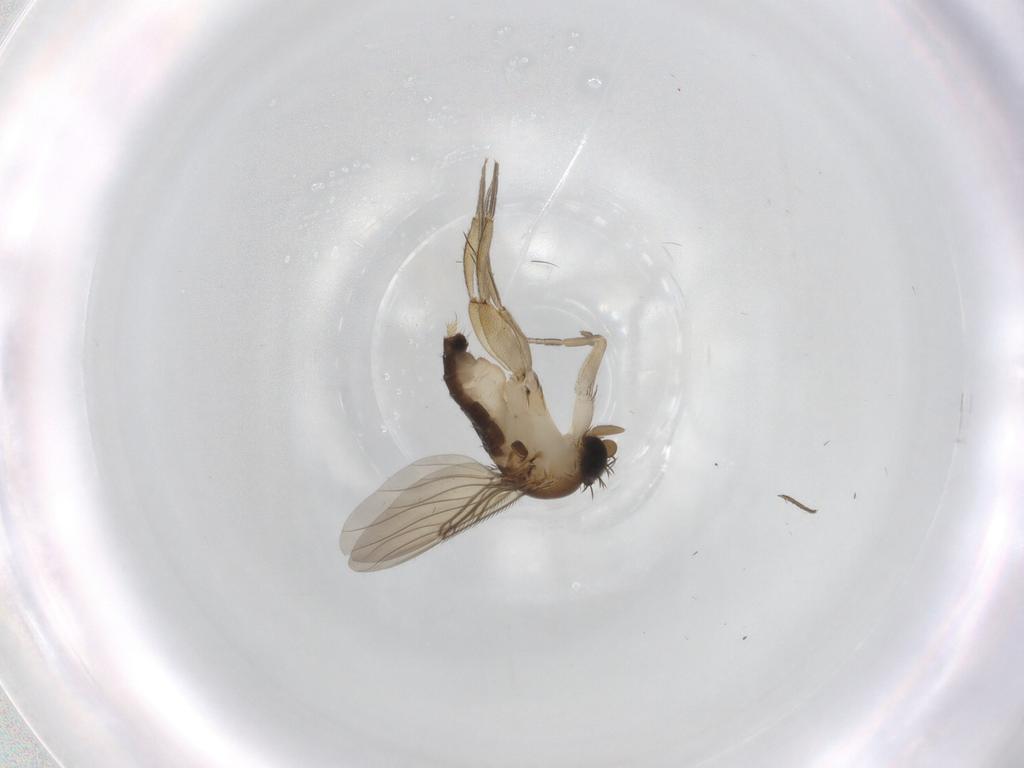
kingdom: Animalia
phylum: Arthropoda
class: Insecta
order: Diptera
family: Phoridae
